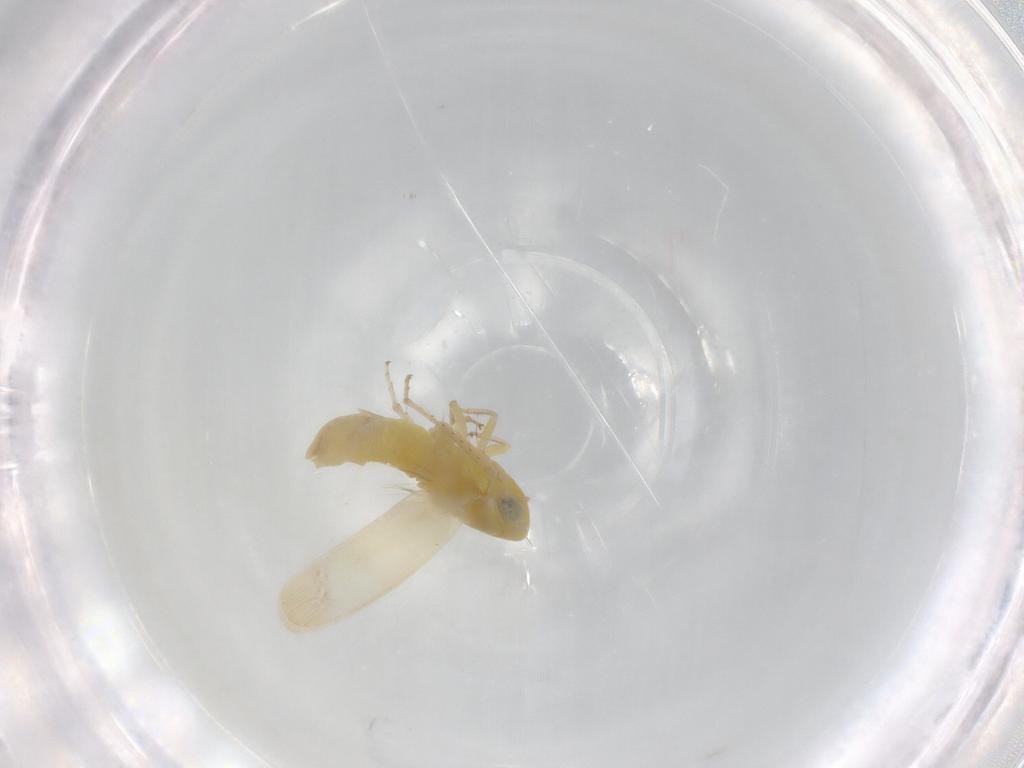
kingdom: Animalia
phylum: Arthropoda
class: Insecta
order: Hemiptera
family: Cicadellidae
